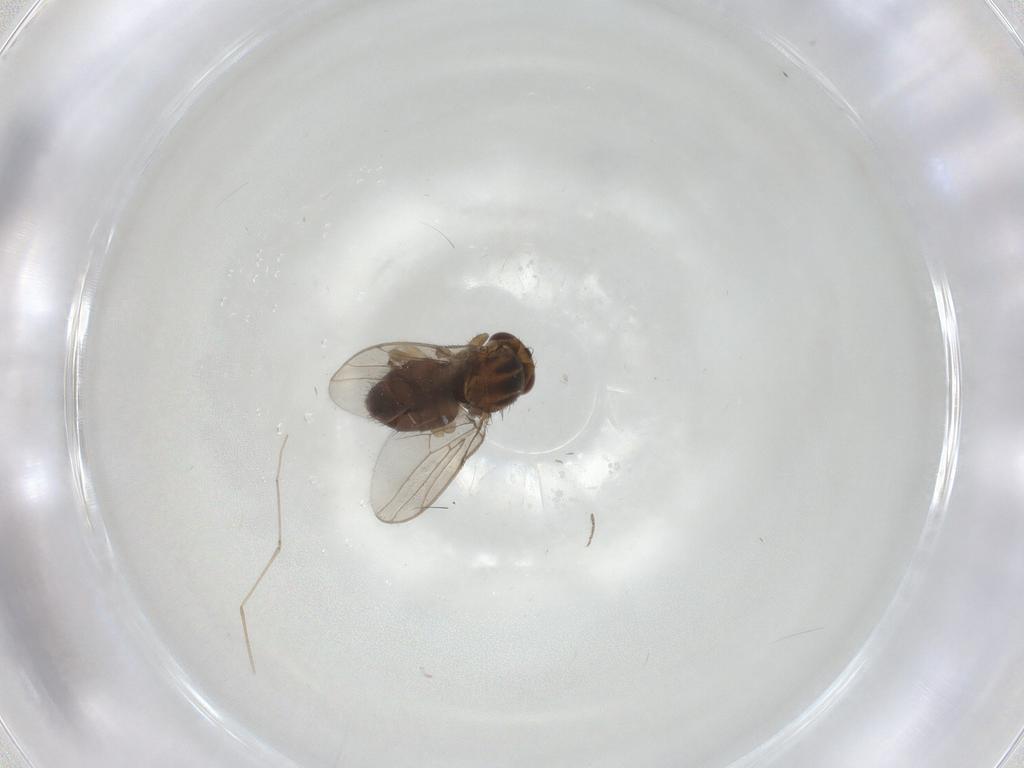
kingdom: Animalia
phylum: Arthropoda
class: Insecta
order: Diptera
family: Chloropidae
